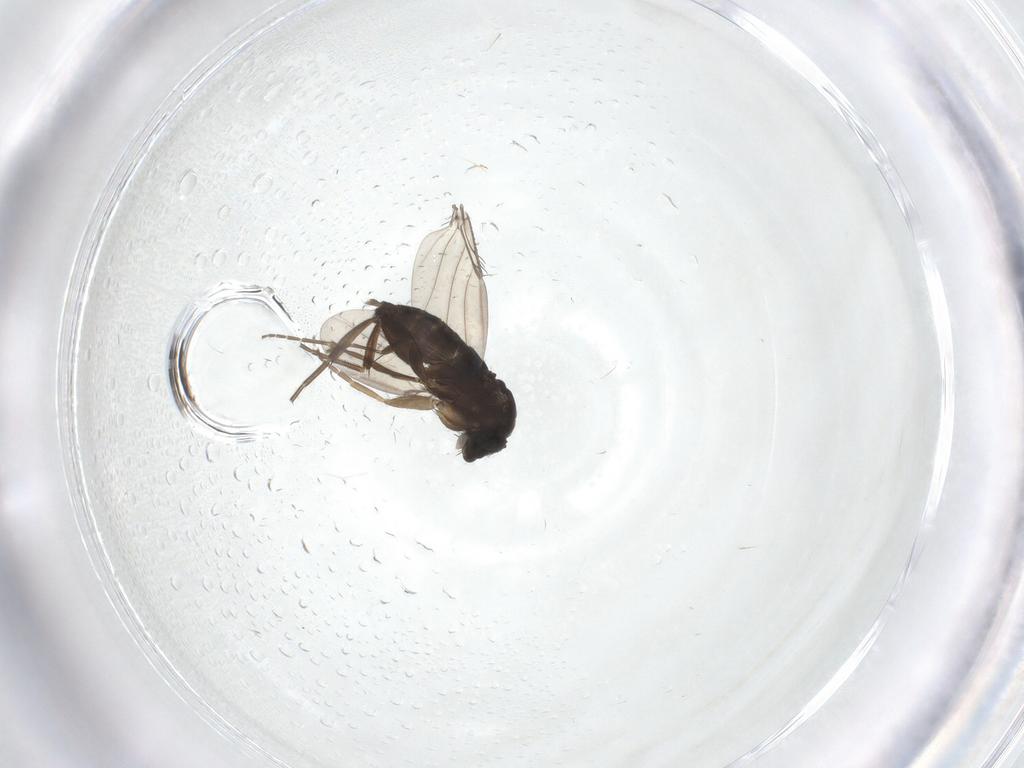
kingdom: Animalia
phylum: Arthropoda
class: Insecta
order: Diptera
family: Phoridae
